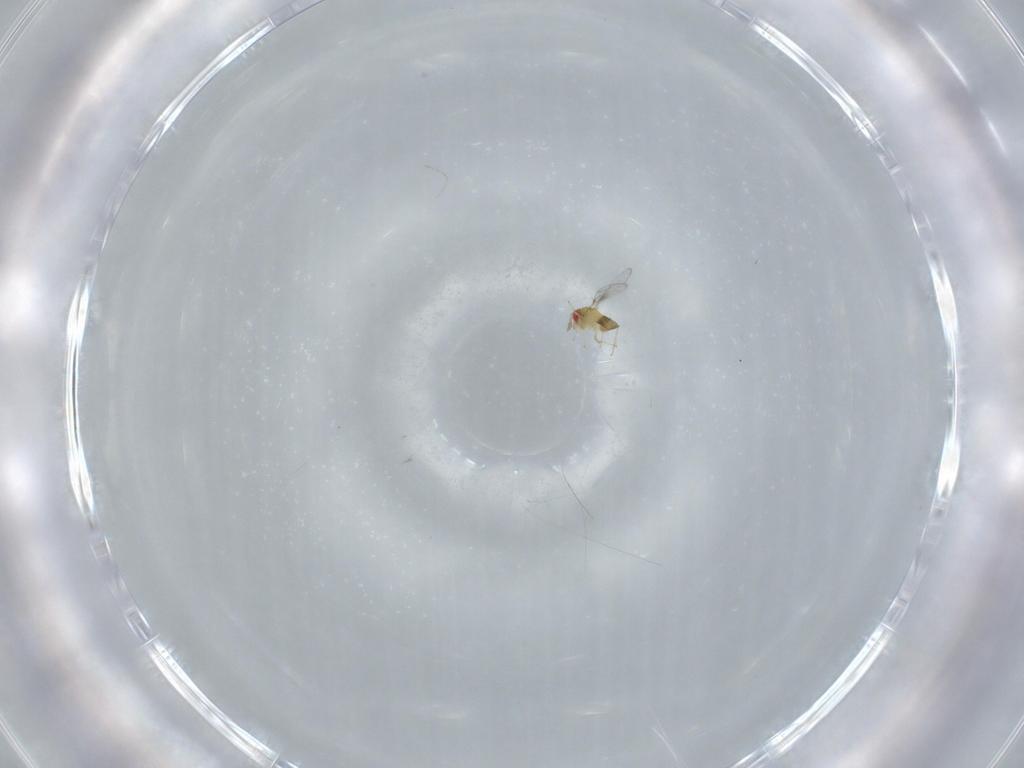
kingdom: Animalia
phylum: Arthropoda
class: Insecta
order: Hymenoptera
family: Trichogrammatidae
